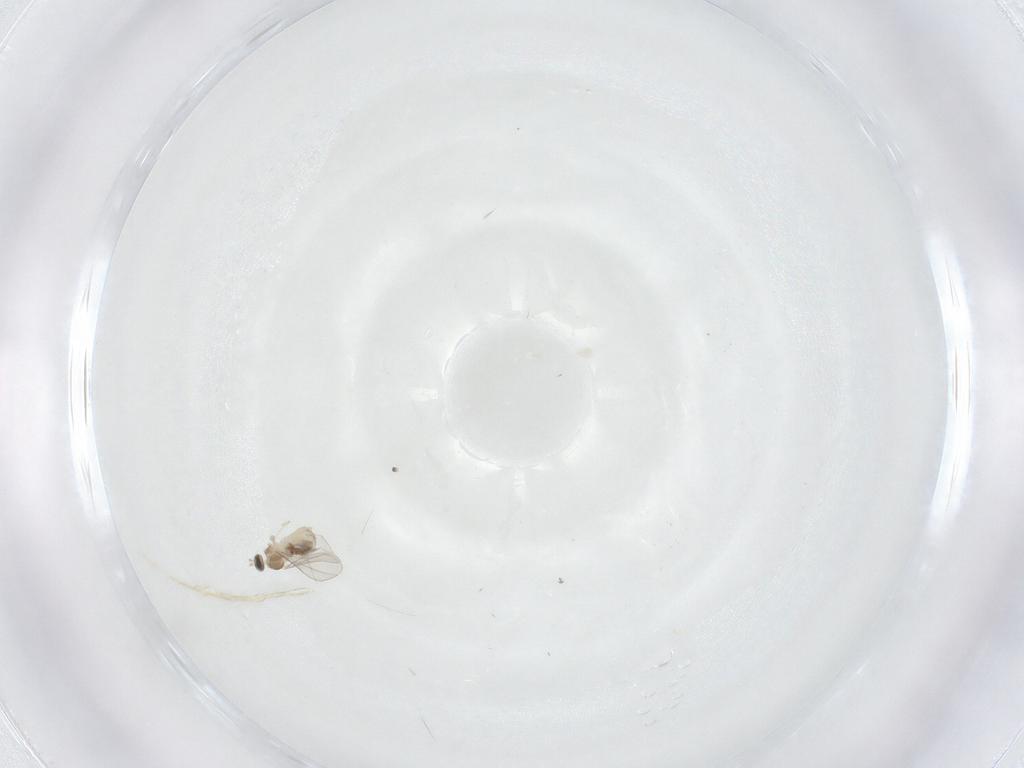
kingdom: Animalia
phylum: Arthropoda
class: Insecta
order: Diptera
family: Cecidomyiidae
